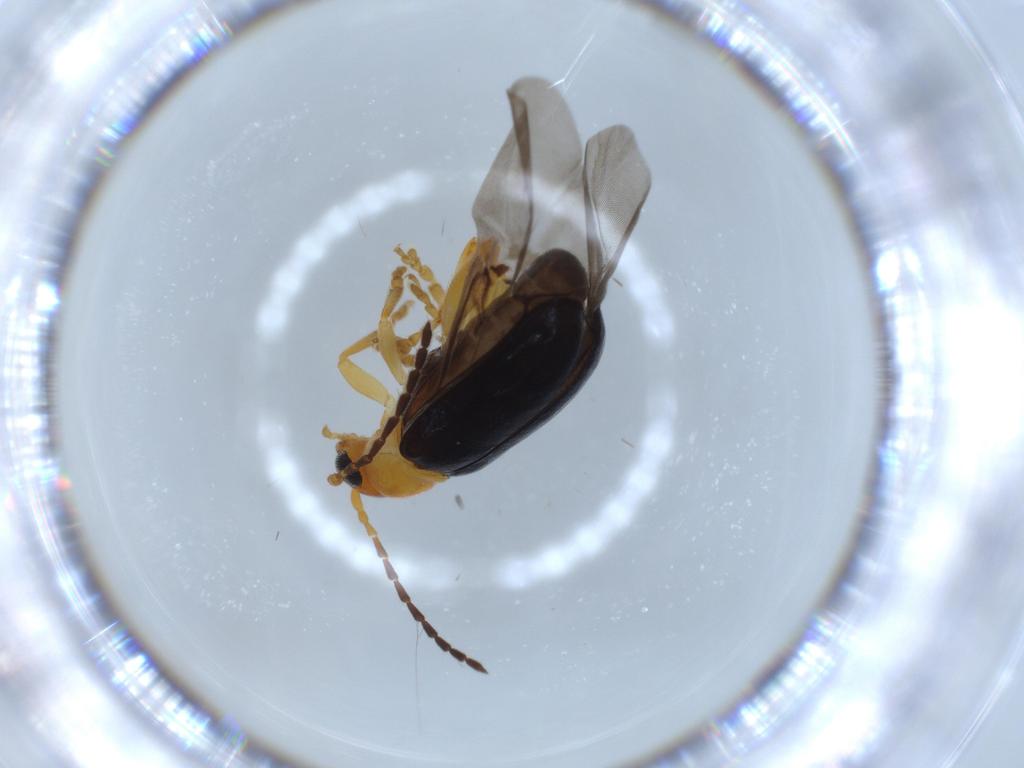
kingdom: Animalia
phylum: Arthropoda
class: Insecta
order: Coleoptera
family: Chrysomelidae
